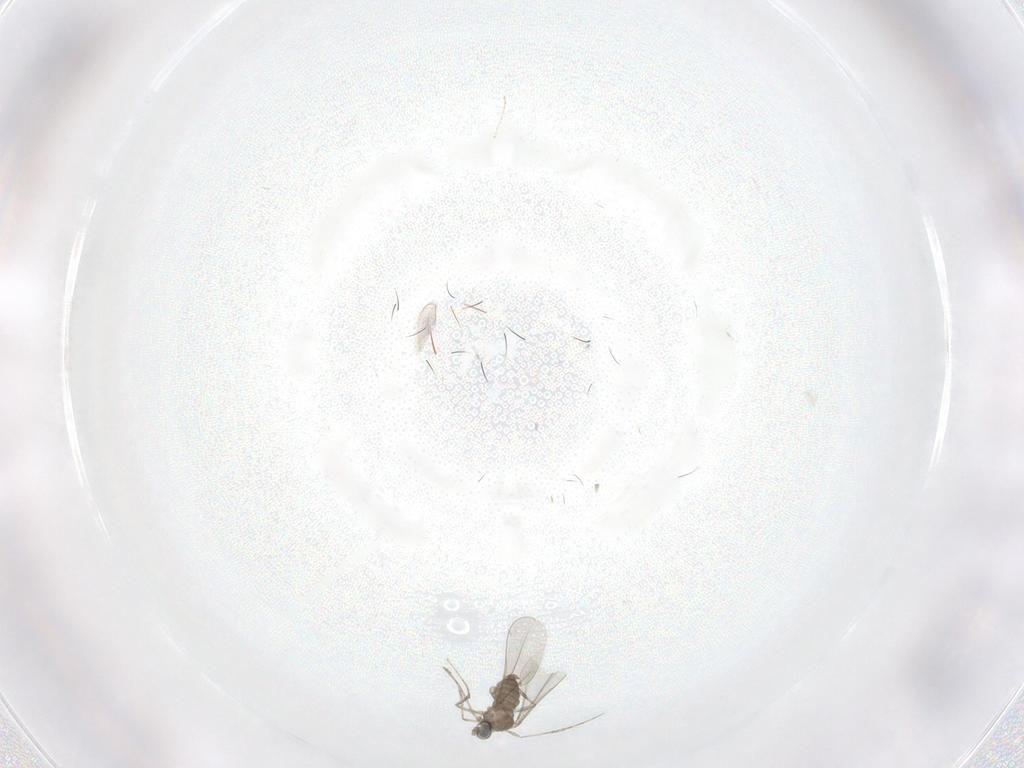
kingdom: Animalia
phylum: Arthropoda
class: Insecta
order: Diptera
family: Cecidomyiidae
